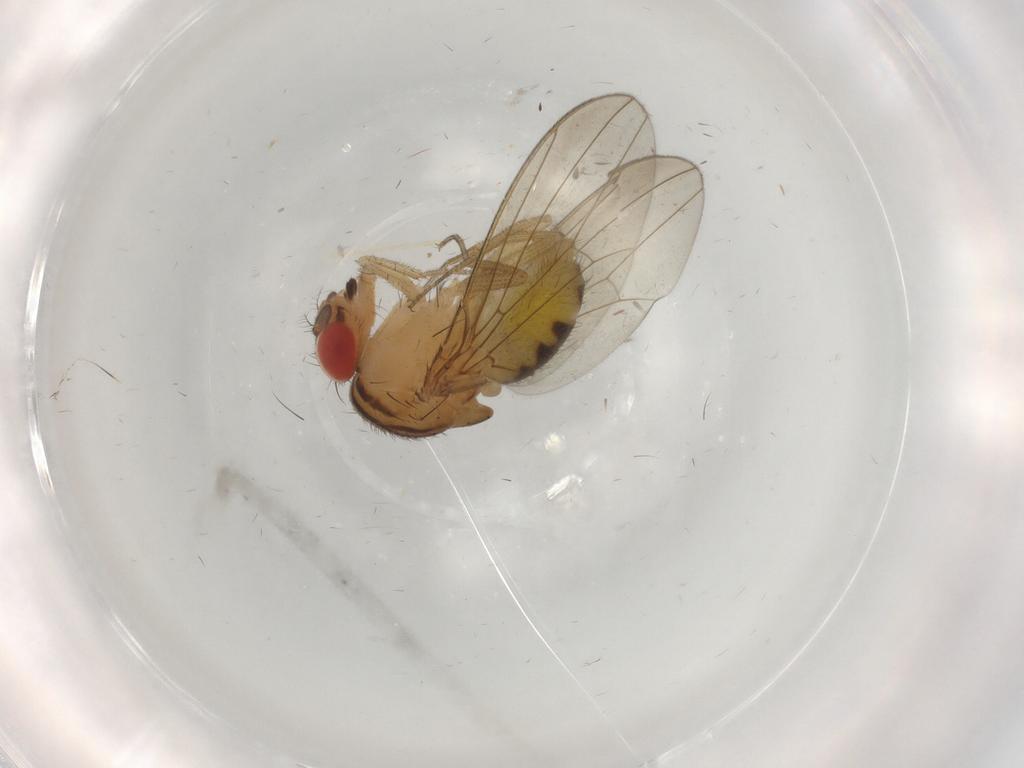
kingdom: Animalia
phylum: Arthropoda
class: Insecta
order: Diptera
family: Drosophilidae
